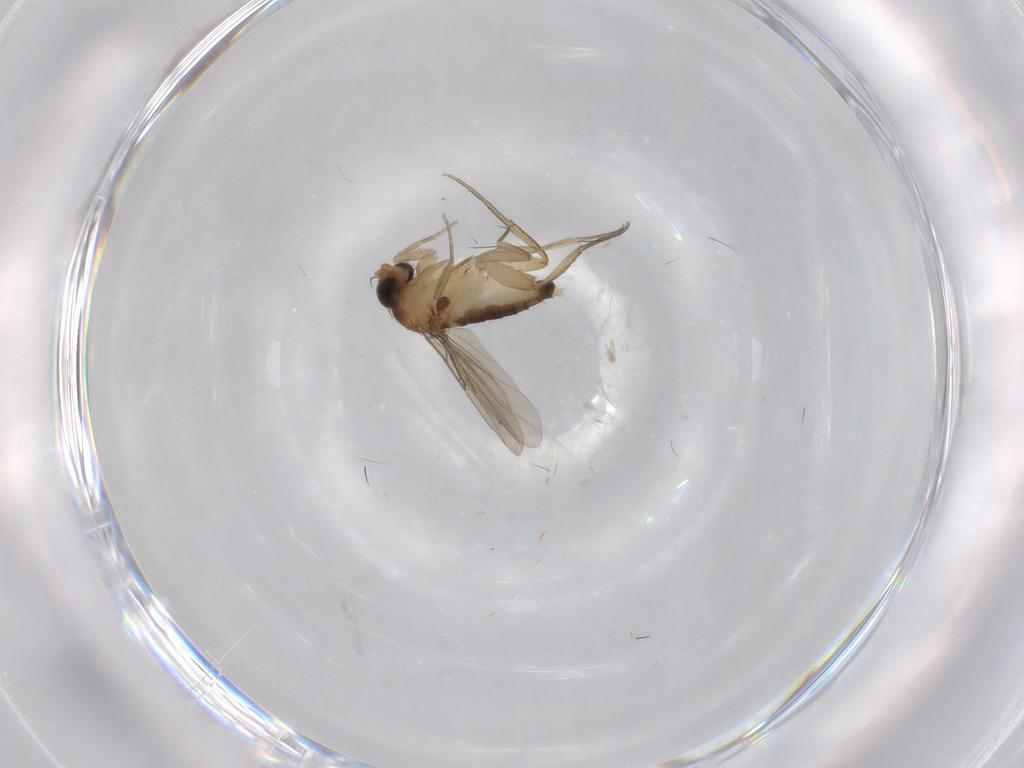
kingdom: Animalia
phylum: Arthropoda
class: Insecta
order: Diptera
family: Phoridae
